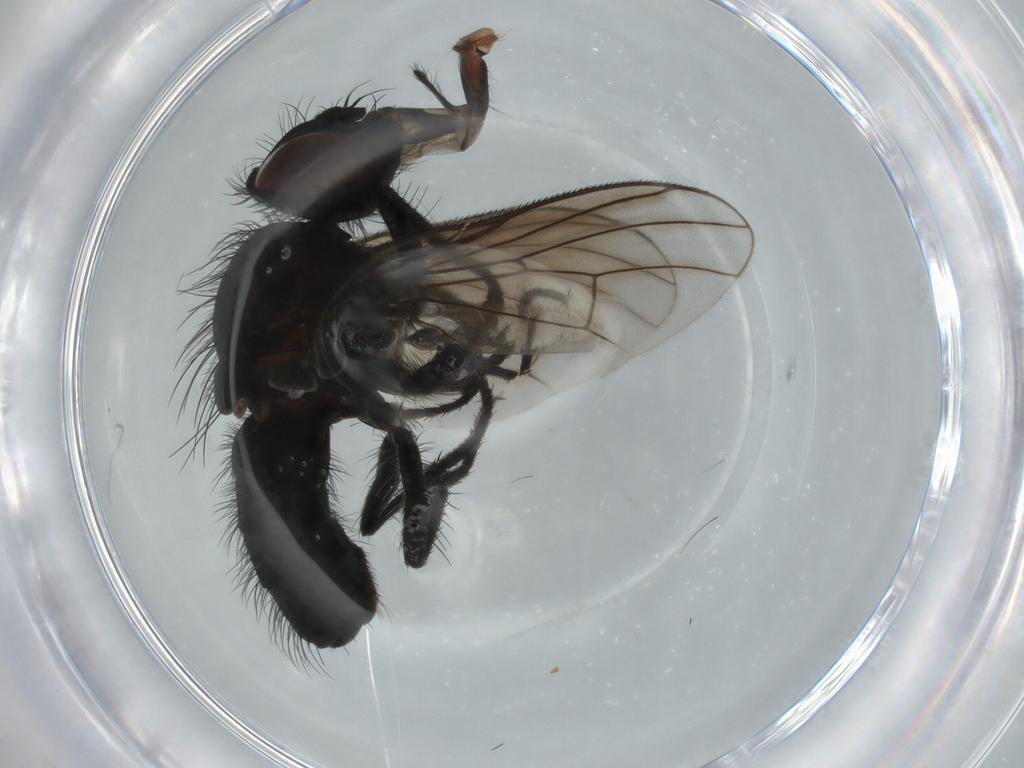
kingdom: Animalia
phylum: Arthropoda
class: Insecta
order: Diptera
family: Muscidae
